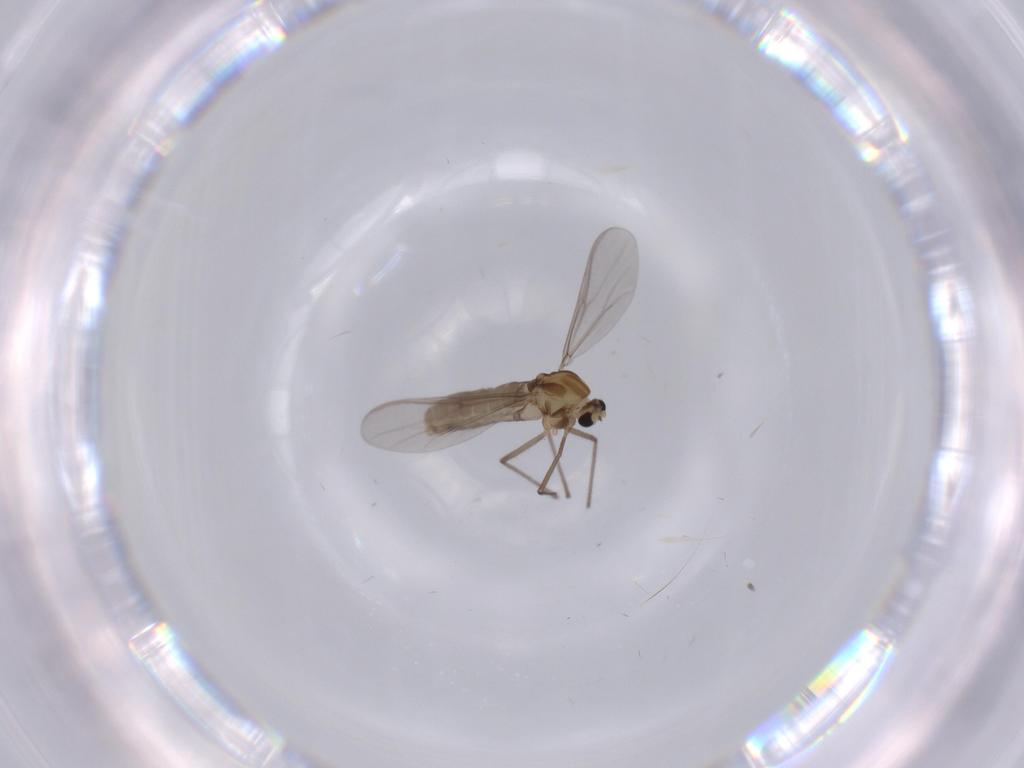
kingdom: Animalia
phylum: Arthropoda
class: Insecta
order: Diptera
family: Chironomidae
